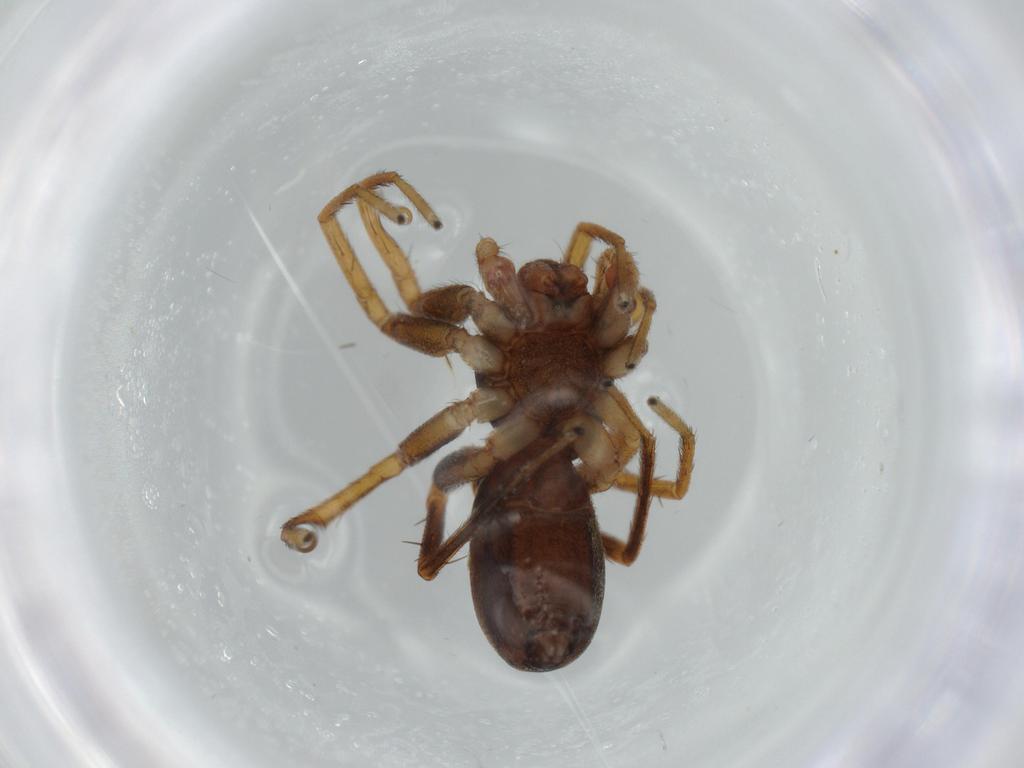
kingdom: Animalia
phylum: Arthropoda
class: Arachnida
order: Araneae
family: Corinnidae
